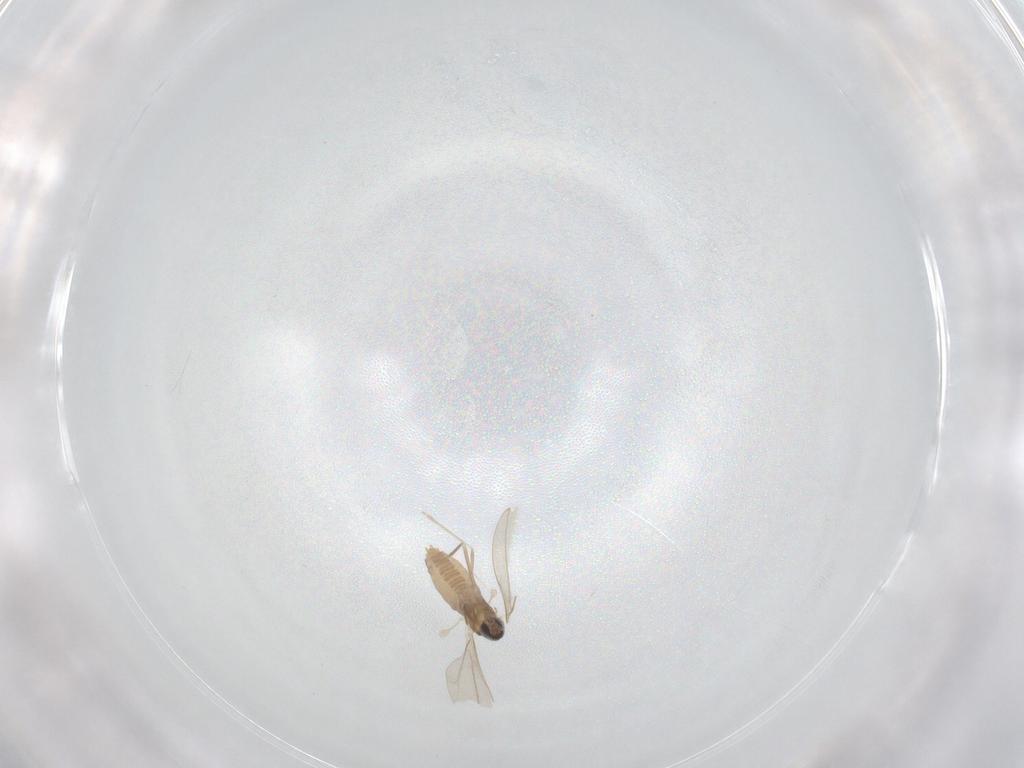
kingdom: Animalia
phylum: Arthropoda
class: Insecta
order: Diptera
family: Cecidomyiidae
